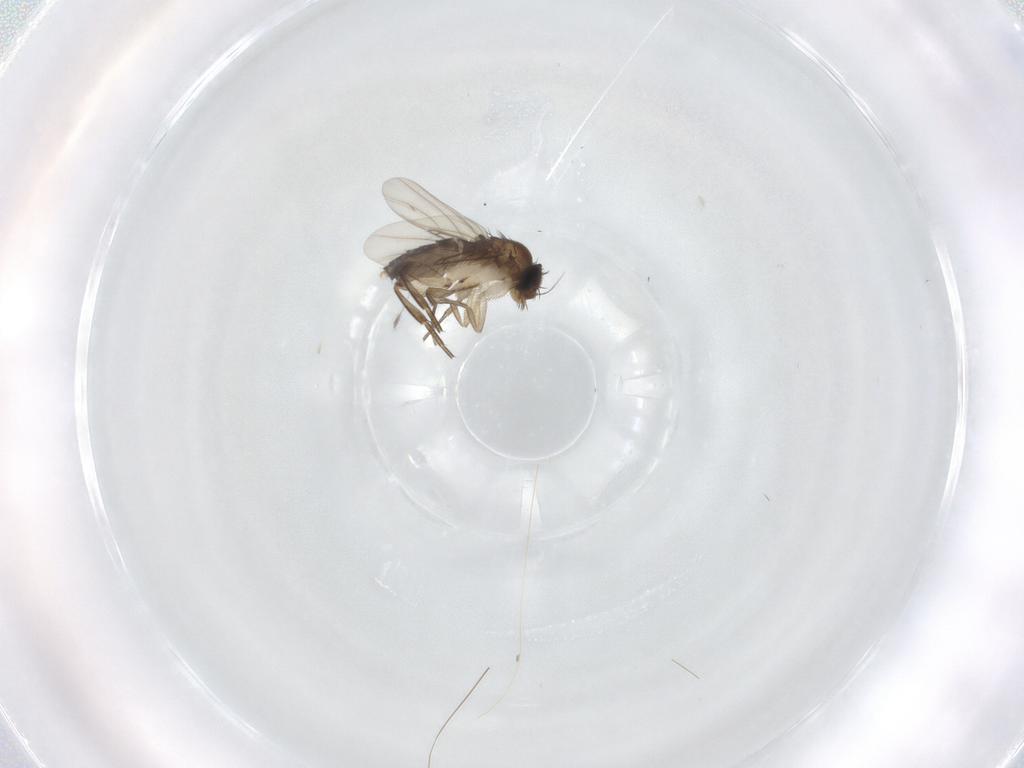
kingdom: Animalia
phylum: Arthropoda
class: Insecta
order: Diptera
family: Phoridae
